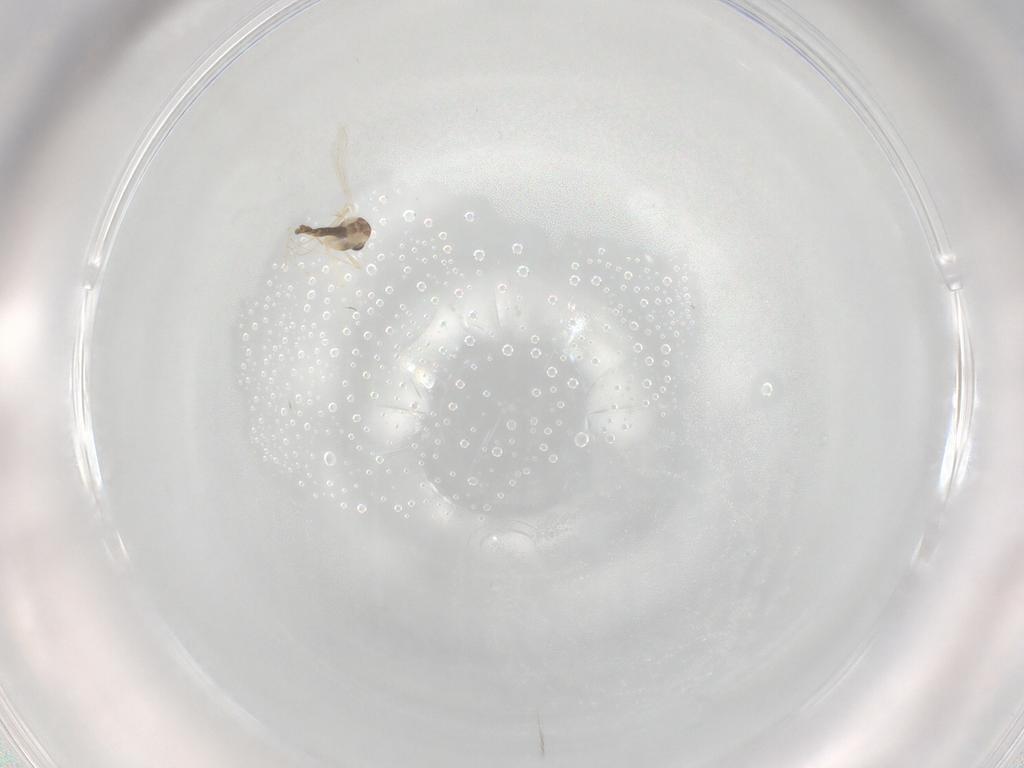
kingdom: Animalia
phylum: Arthropoda
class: Insecta
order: Diptera
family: Chironomidae
